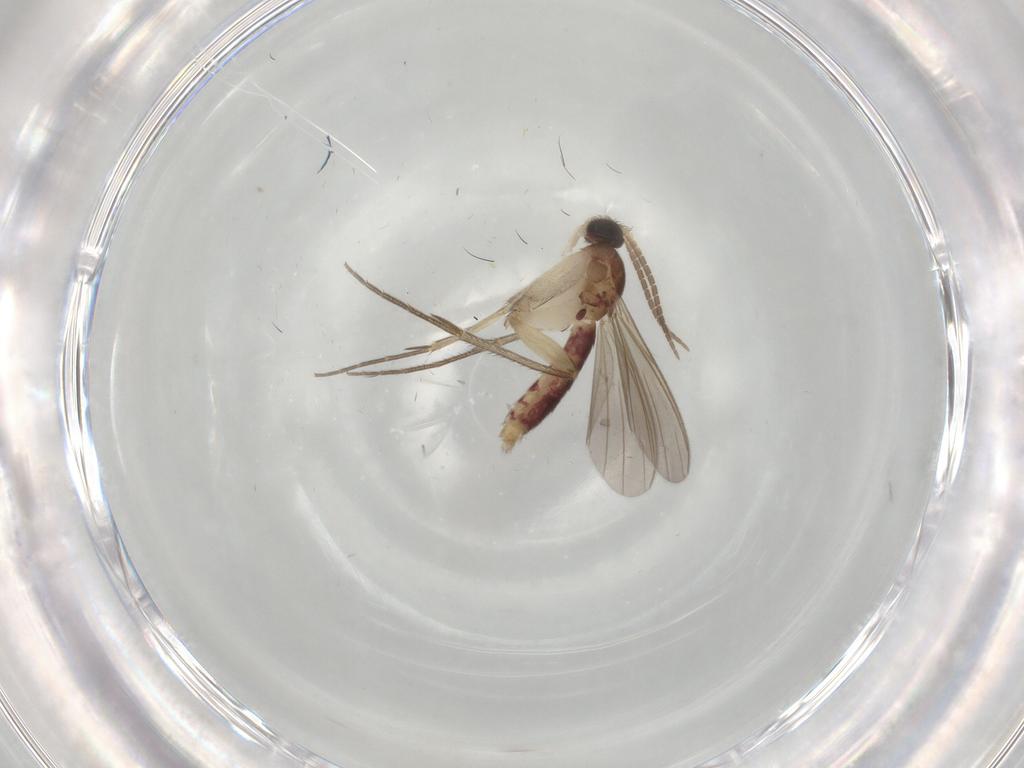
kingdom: Animalia
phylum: Arthropoda
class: Insecta
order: Diptera
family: Mycetophilidae
